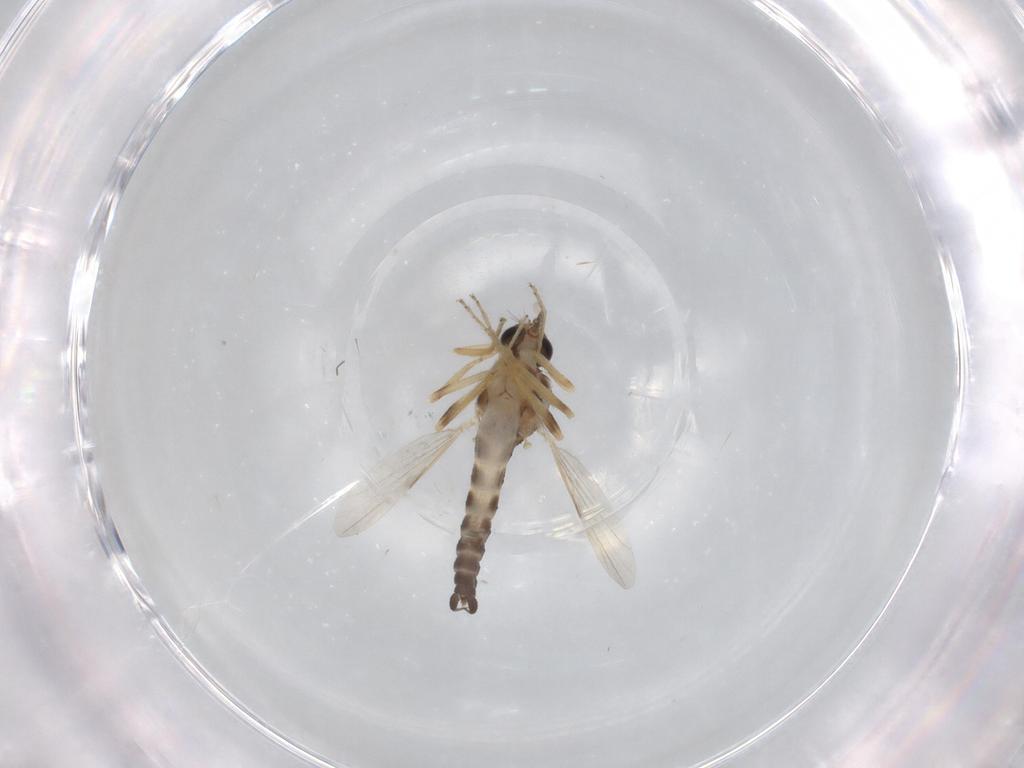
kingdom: Animalia
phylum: Arthropoda
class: Insecta
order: Diptera
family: Ceratopogonidae
